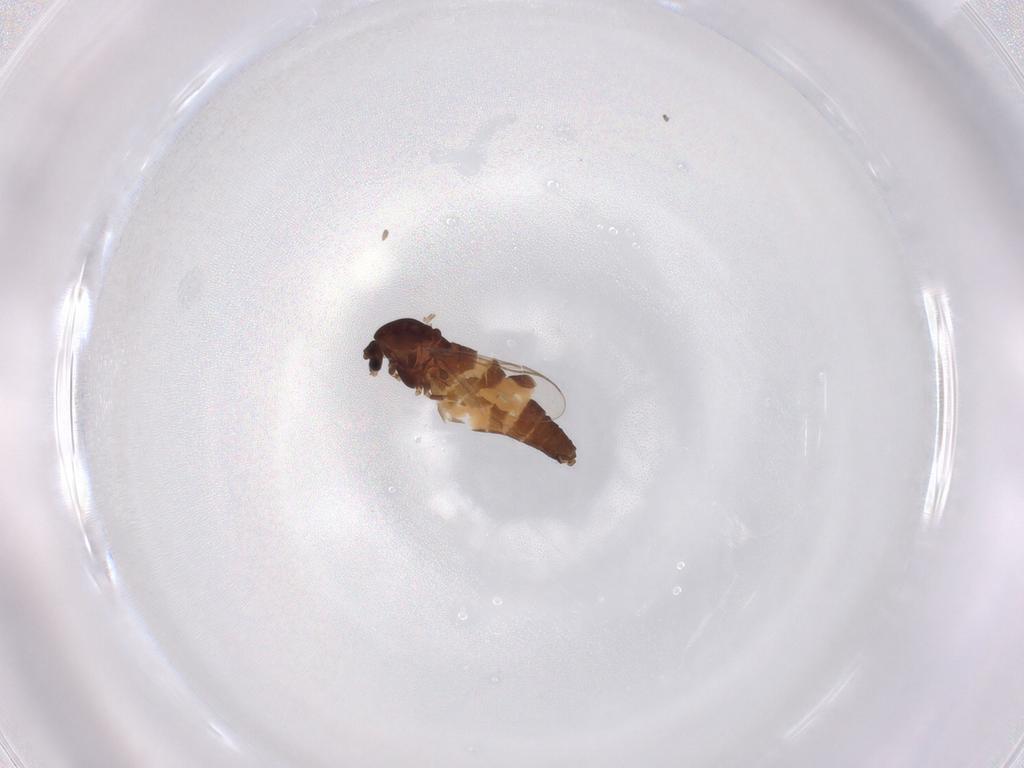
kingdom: Animalia
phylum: Arthropoda
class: Insecta
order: Diptera
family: Chironomidae
